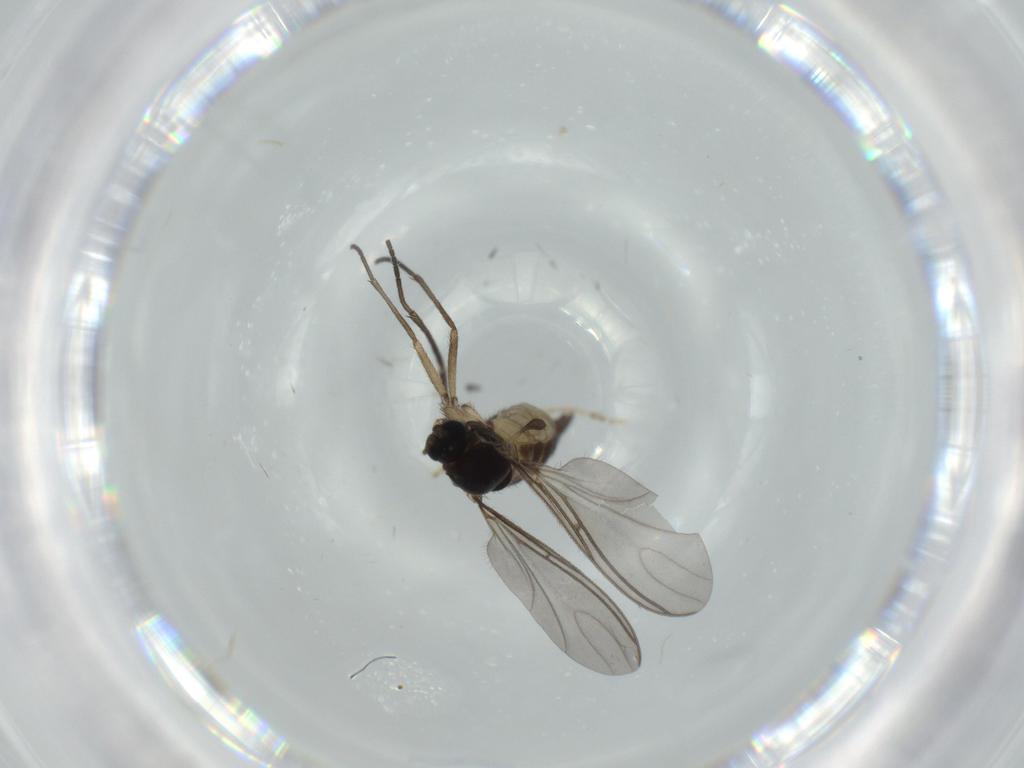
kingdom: Animalia
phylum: Arthropoda
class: Insecta
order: Diptera
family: Sciaridae
